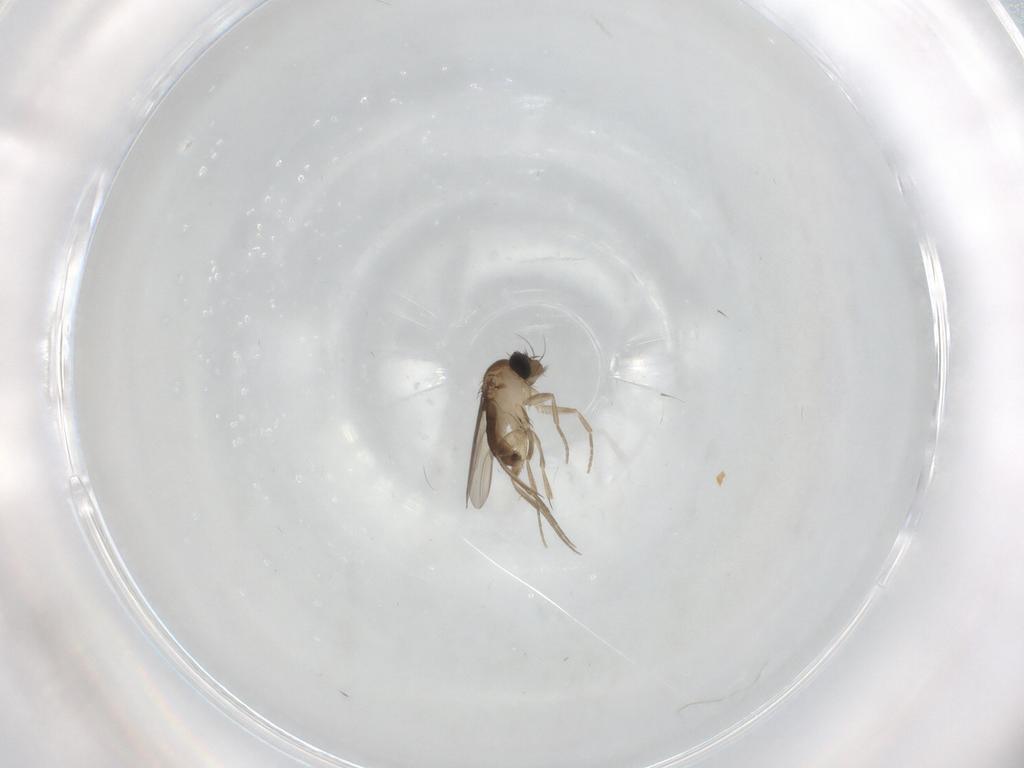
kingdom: Animalia
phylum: Arthropoda
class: Insecta
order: Diptera
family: Phoridae
